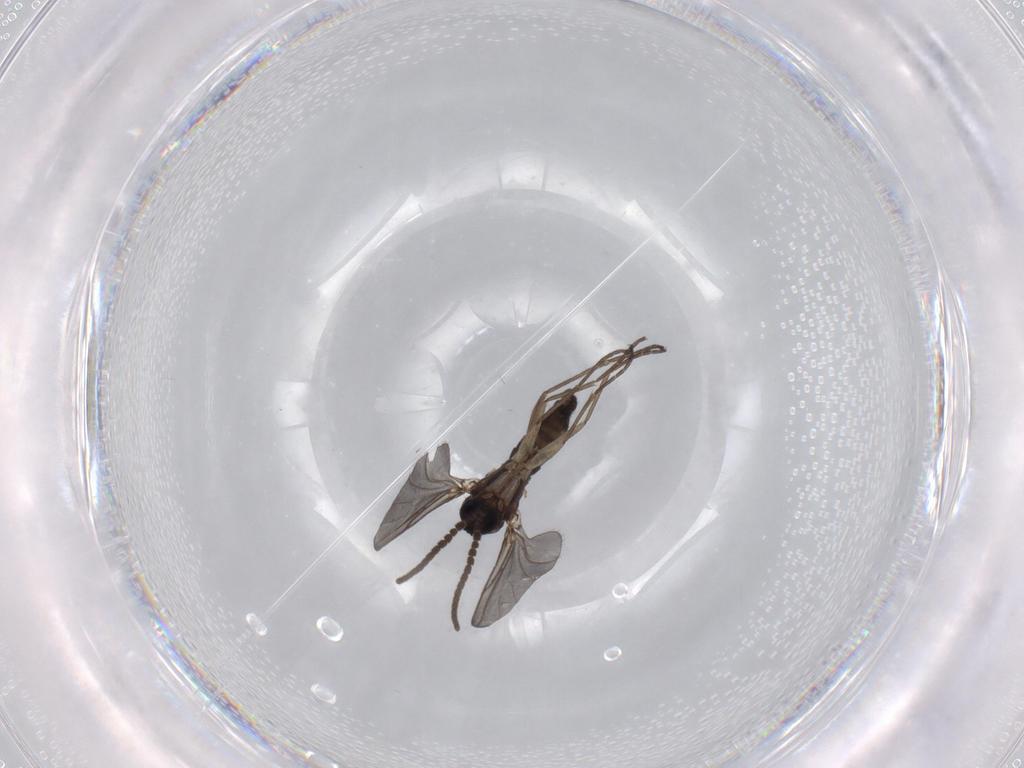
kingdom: Animalia
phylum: Arthropoda
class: Insecta
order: Diptera
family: Sciaridae
